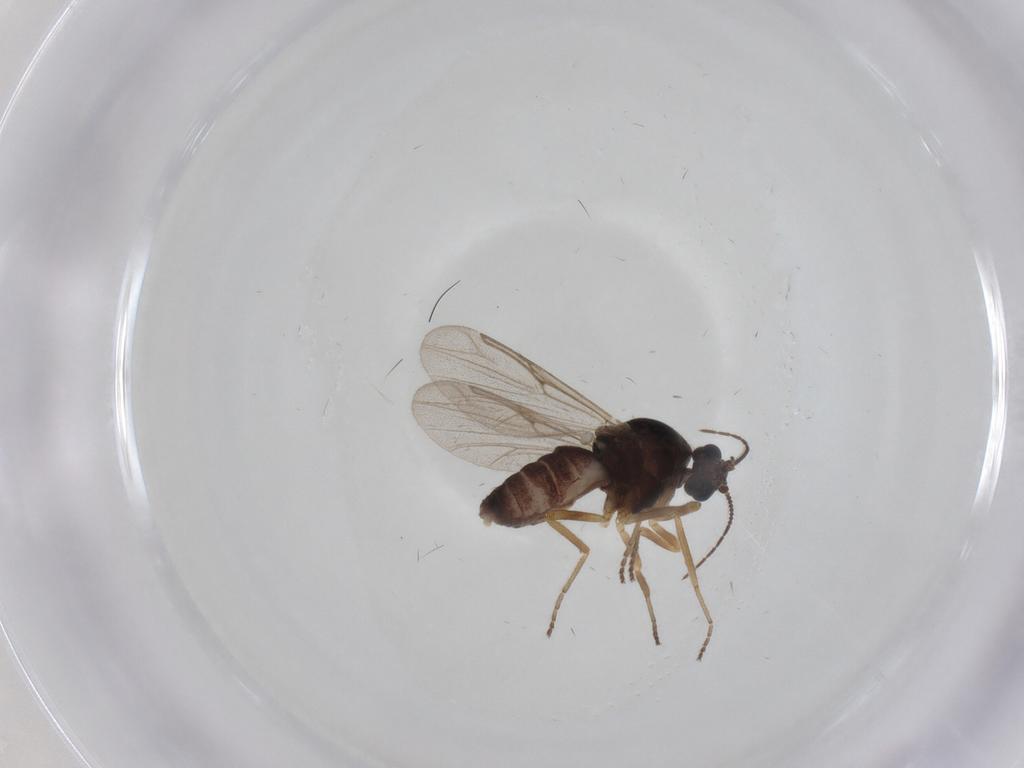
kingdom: Animalia
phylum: Arthropoda
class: Insecta
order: Diptera
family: Ceratopogonidae
